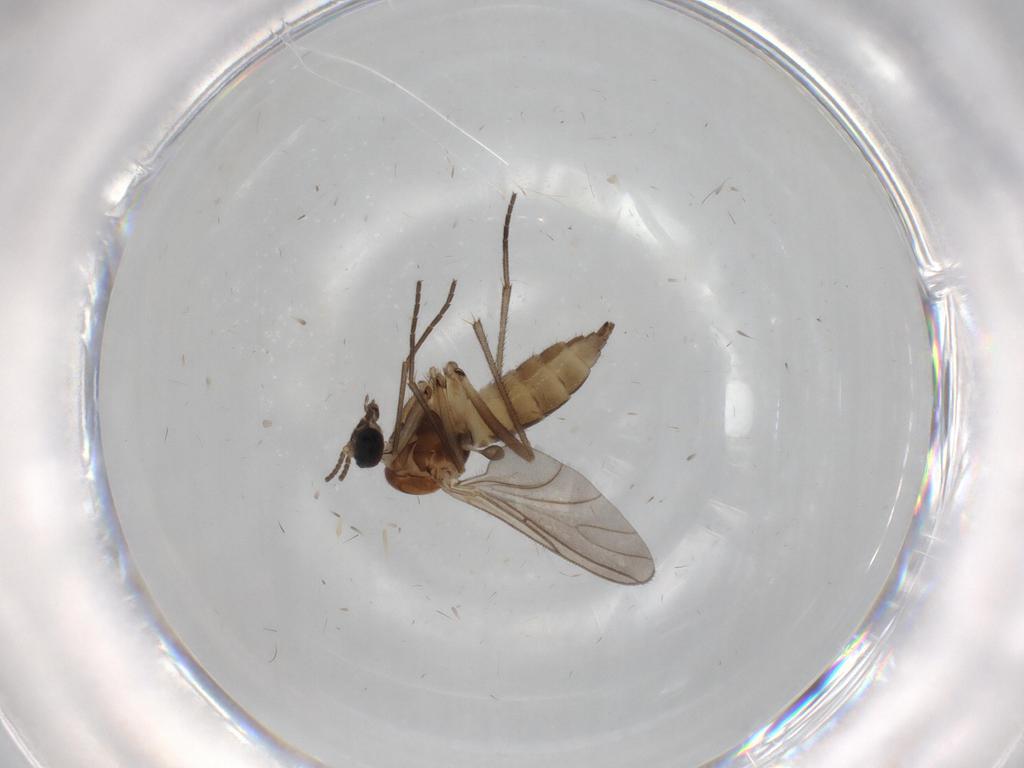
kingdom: Animalia
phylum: Arthropoda
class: Insecta
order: Diptera
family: Sciaridae
